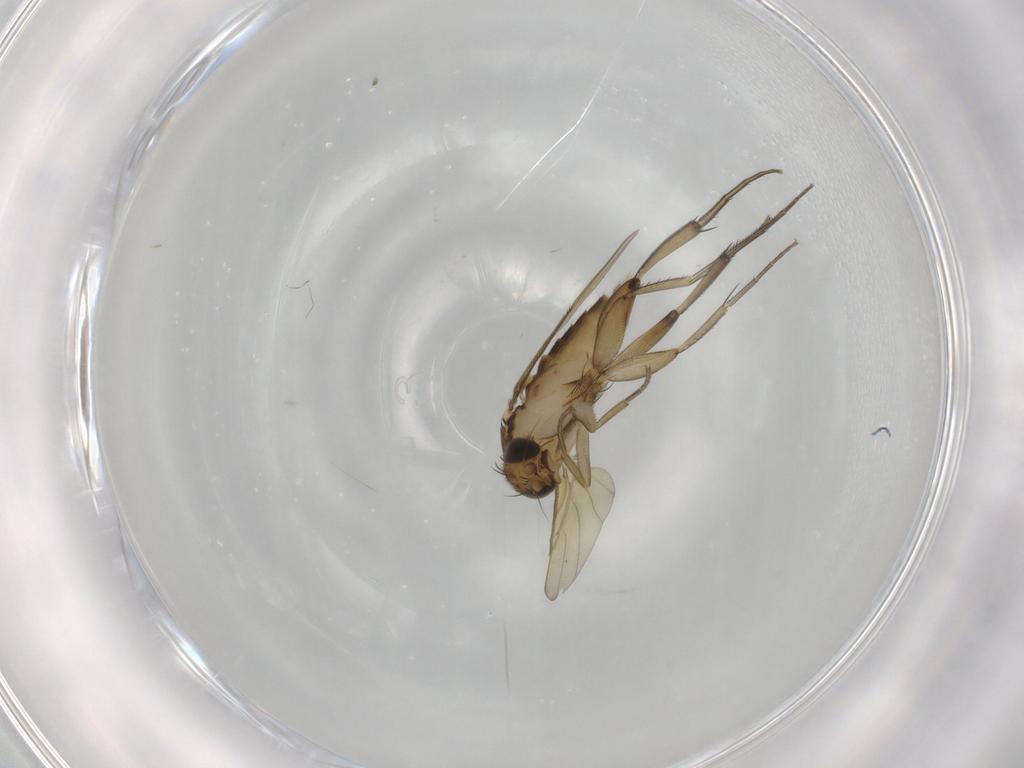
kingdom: Animalia
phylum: Arthropoda
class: Insecta
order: Diptera
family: Phoridae
